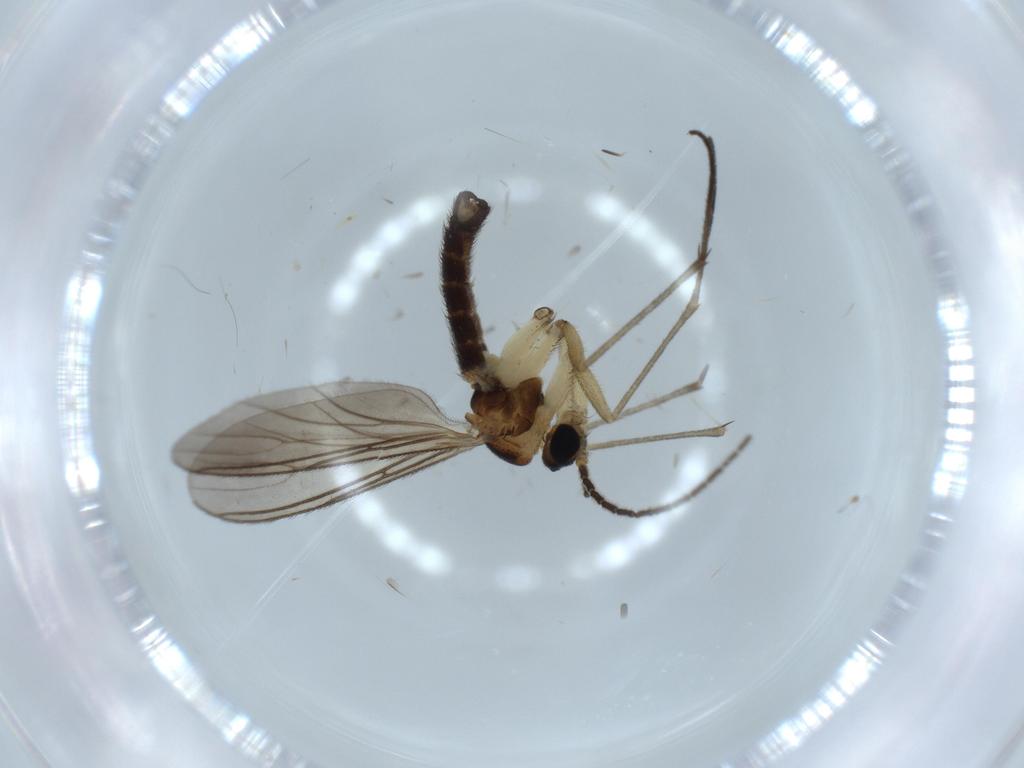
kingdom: Animalia
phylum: Arthropoda
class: Insecta
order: Diptera
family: Sciaridae
